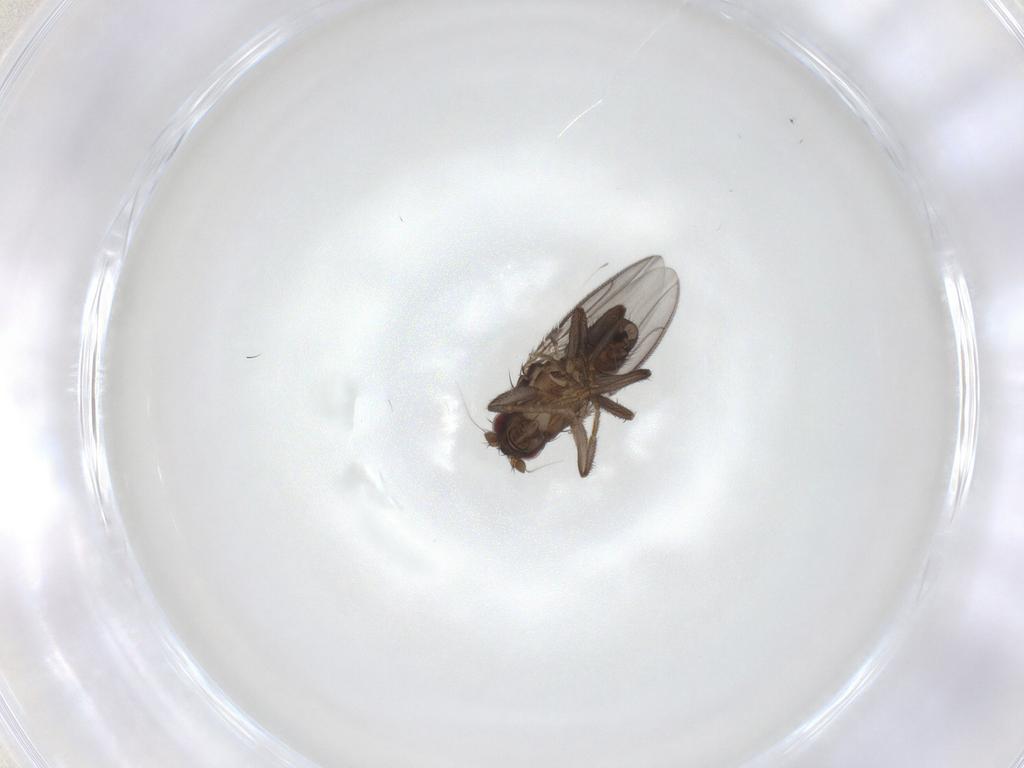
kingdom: Animalia
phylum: Arthropoda
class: Insecta
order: Diptera
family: Psychodidae
